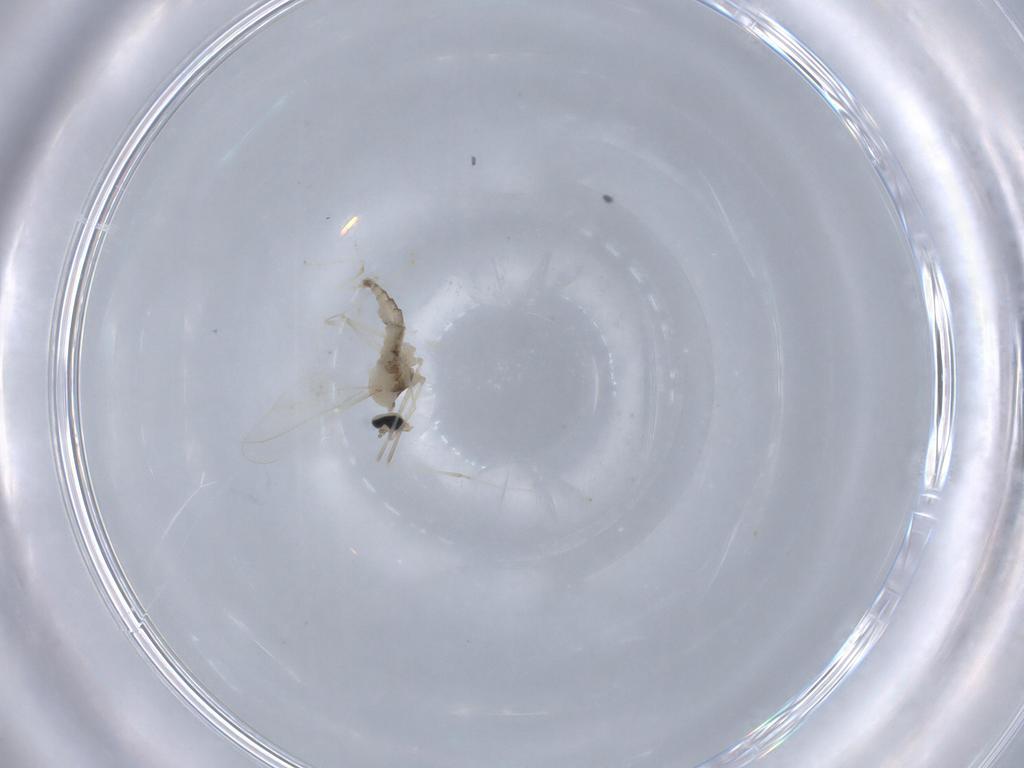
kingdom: Animalia
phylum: Arthropoda
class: Insecta
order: Diptera
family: Cecidomyiidae
